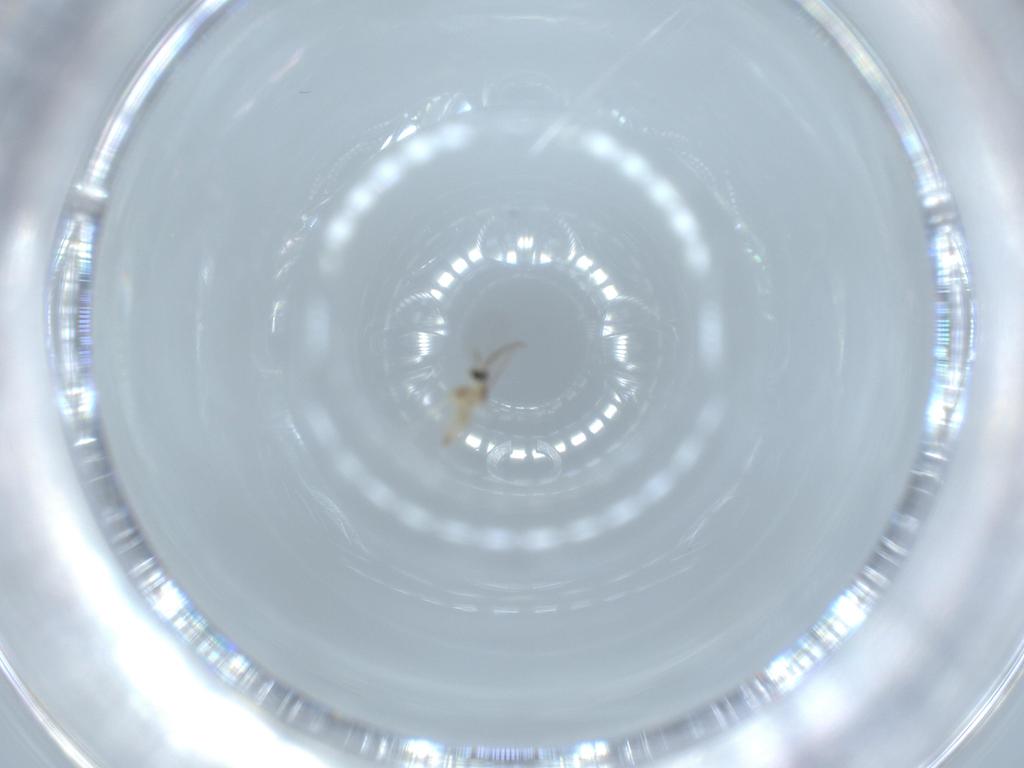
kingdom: Animalia
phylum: Arthropoda
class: Insecta
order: Diptera
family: Cecidomyiidae
